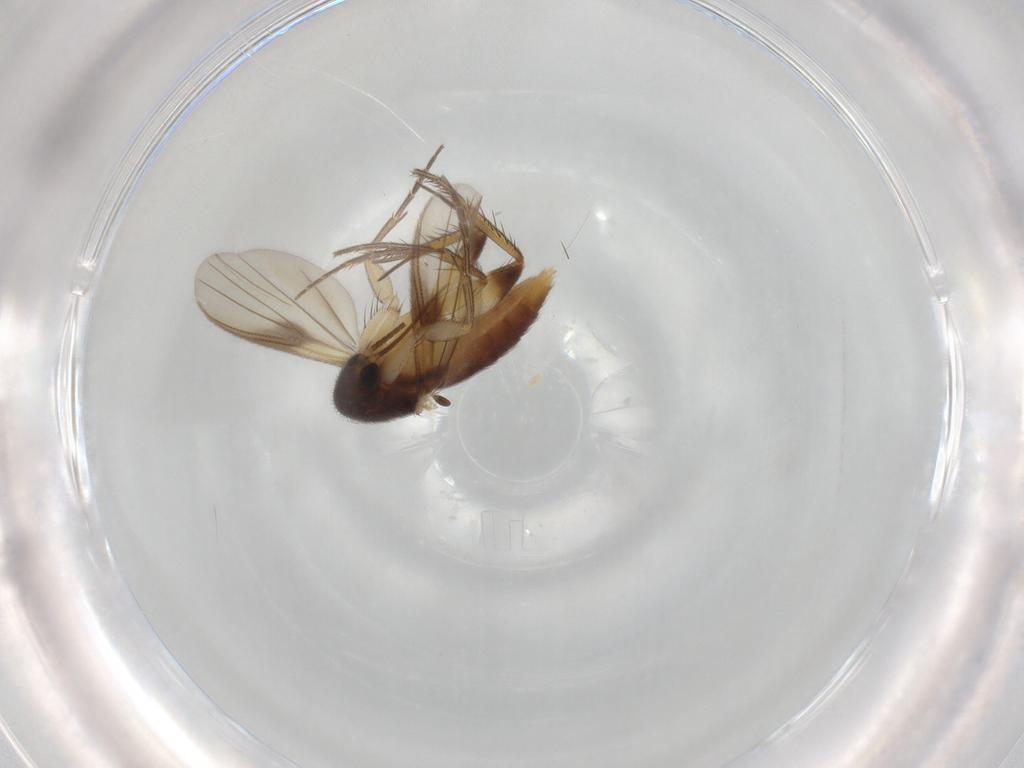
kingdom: Animalia
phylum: Arthropoda
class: Insecta
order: Diptera
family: Mycetophilidae
